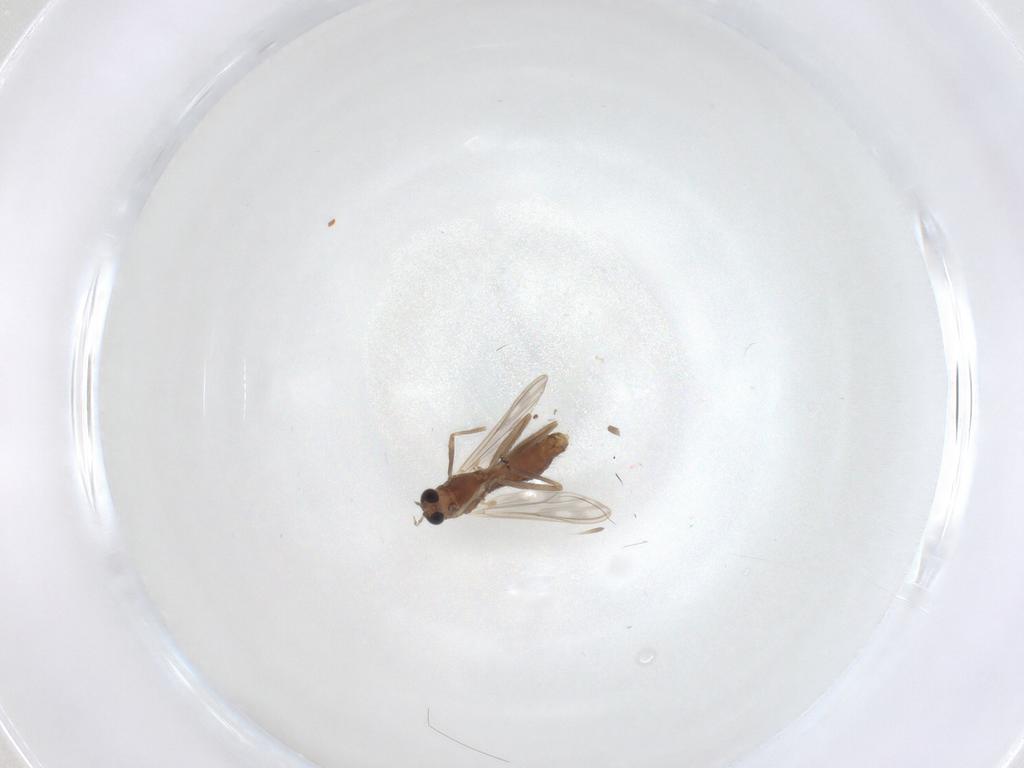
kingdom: Animalia
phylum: Arthropoda
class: Insecta
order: Diptera
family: Chironomidae
